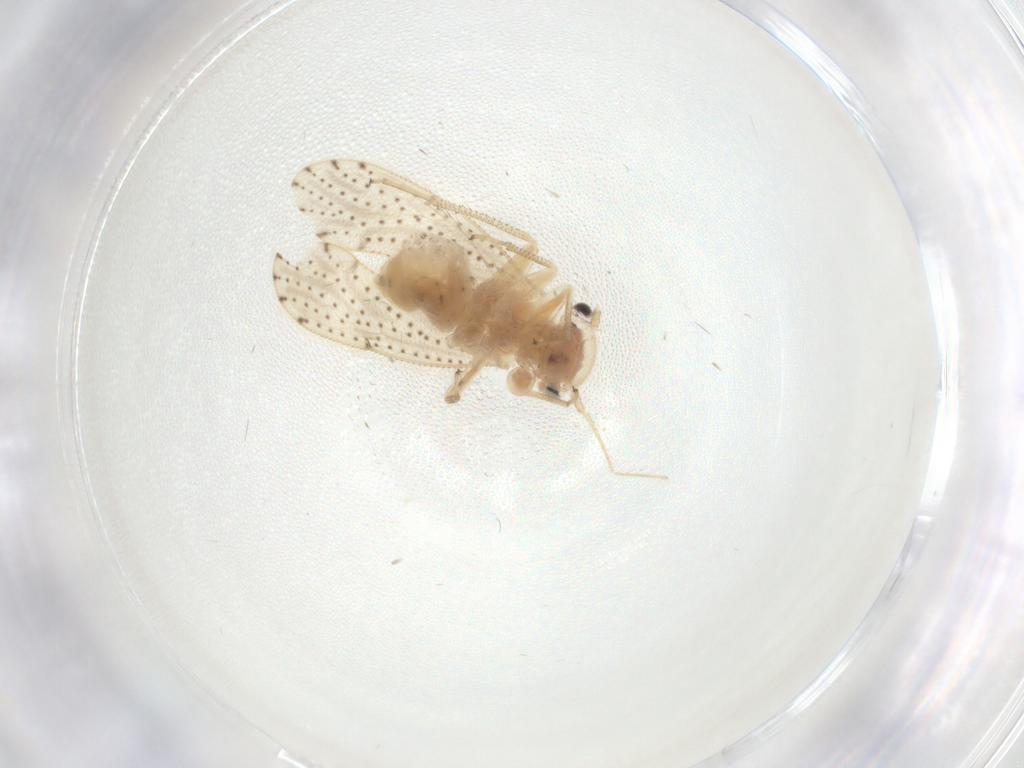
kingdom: Animalia
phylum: Arthropoda
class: Insecta
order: Psocodea
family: Myopsocidae
